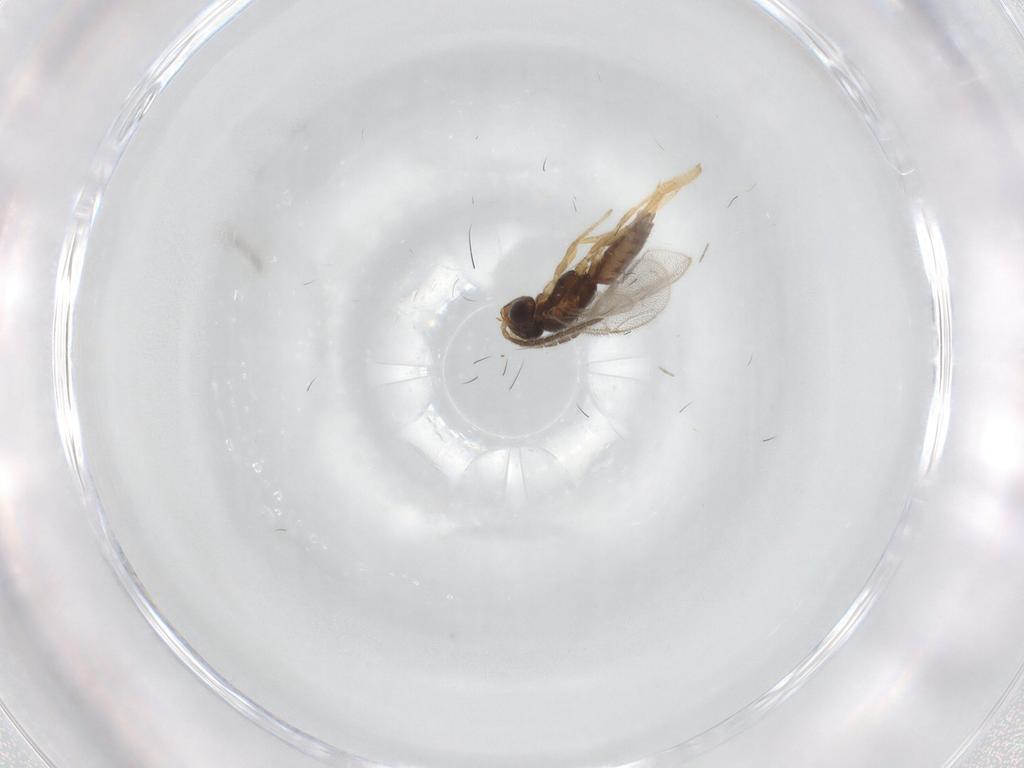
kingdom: Animalia
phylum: Arthropoda
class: Insecta
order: Hymenoptera
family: Dryinidae
